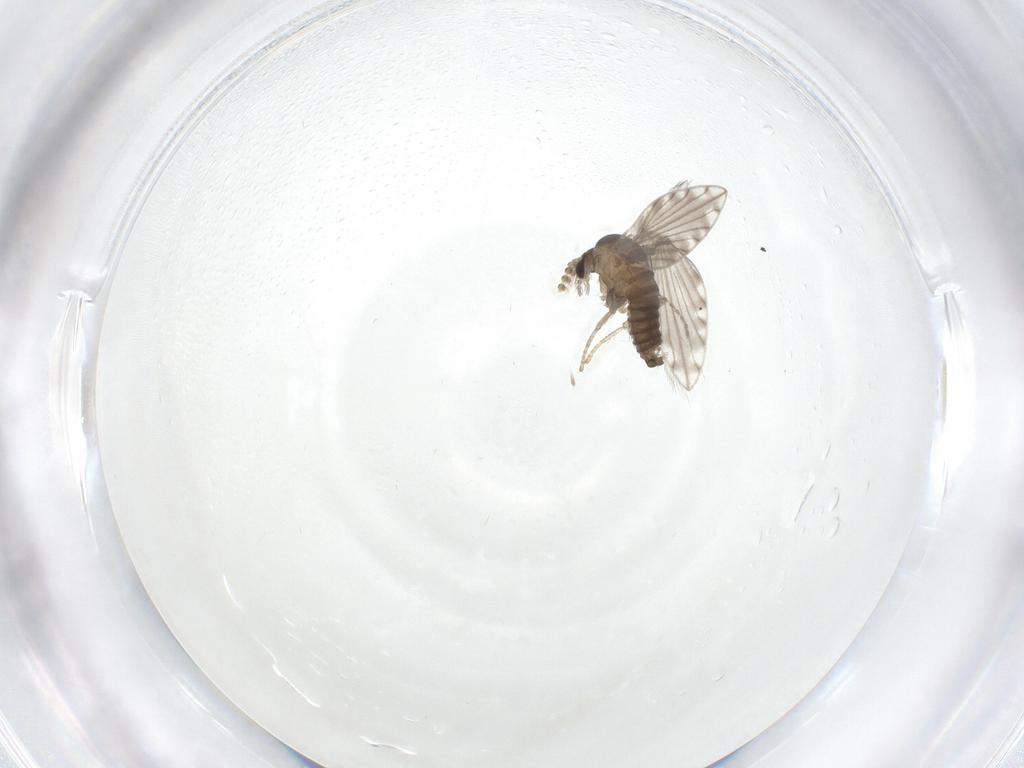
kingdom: Animalia
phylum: Arthropoda
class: Insecta
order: Diptera
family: Psychodidae
